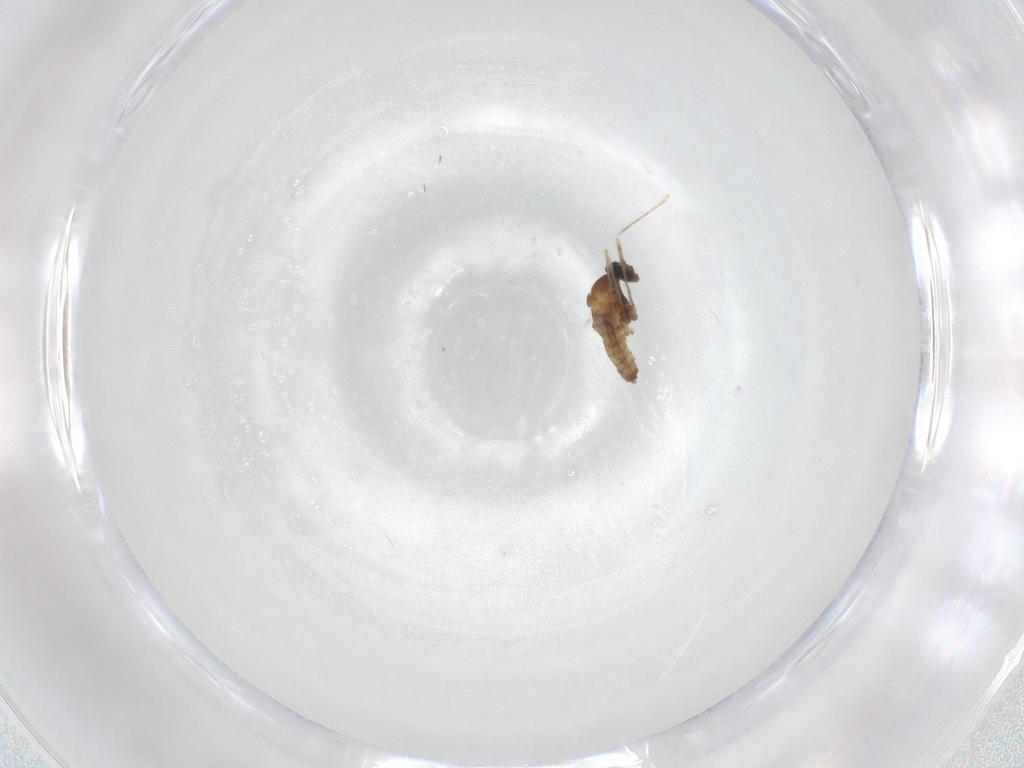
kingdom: Animalia
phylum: Arthropoda
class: Insecta
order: Diptera
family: Cecidomyiidae
